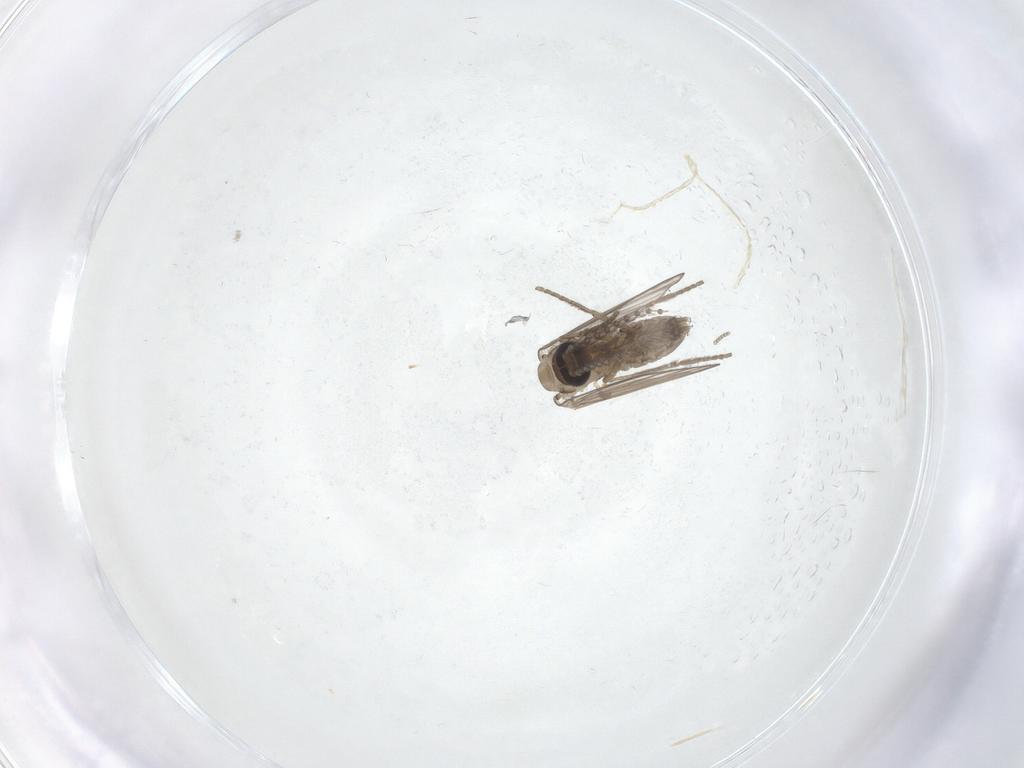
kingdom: Animalia
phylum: Arthropoda
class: Insecta
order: Diptera
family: Psychodidae
